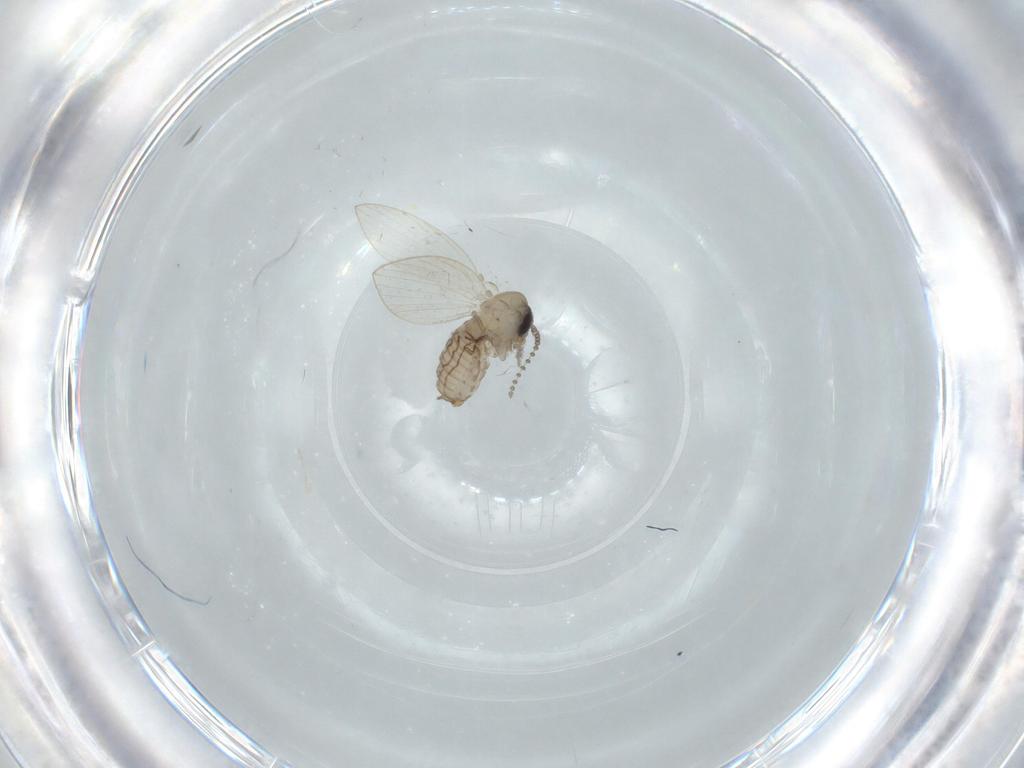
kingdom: Animalia
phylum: Arthropoda
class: Insecta
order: Diptera
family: Psychodidae
